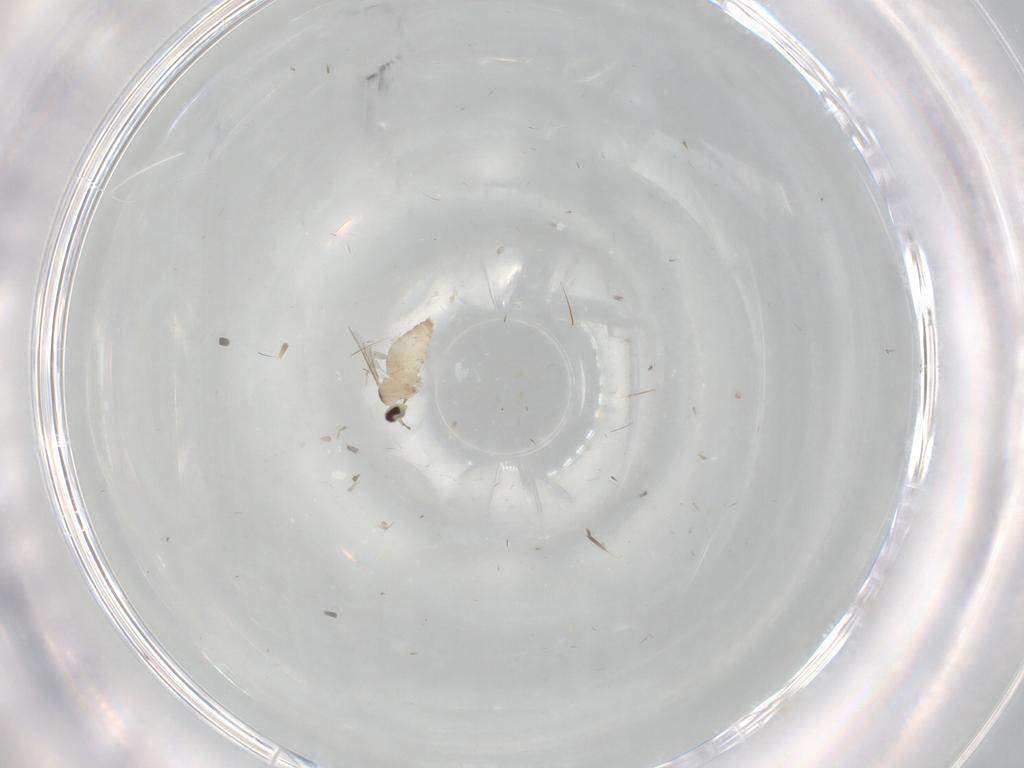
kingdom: Animalia
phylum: Arthropoda
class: Insecta
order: Diptera
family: Cecidomyiidae
